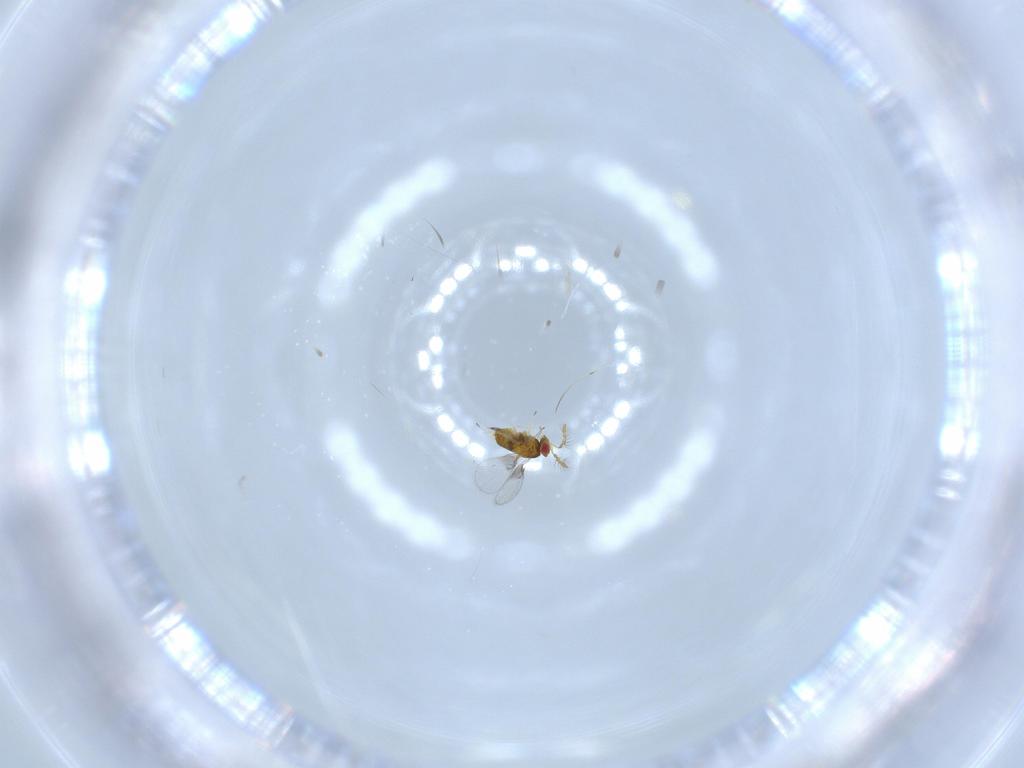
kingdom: Animalia
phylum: Arthropoda
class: Insecta
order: Hymenoptera
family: Trichogrammatidae
